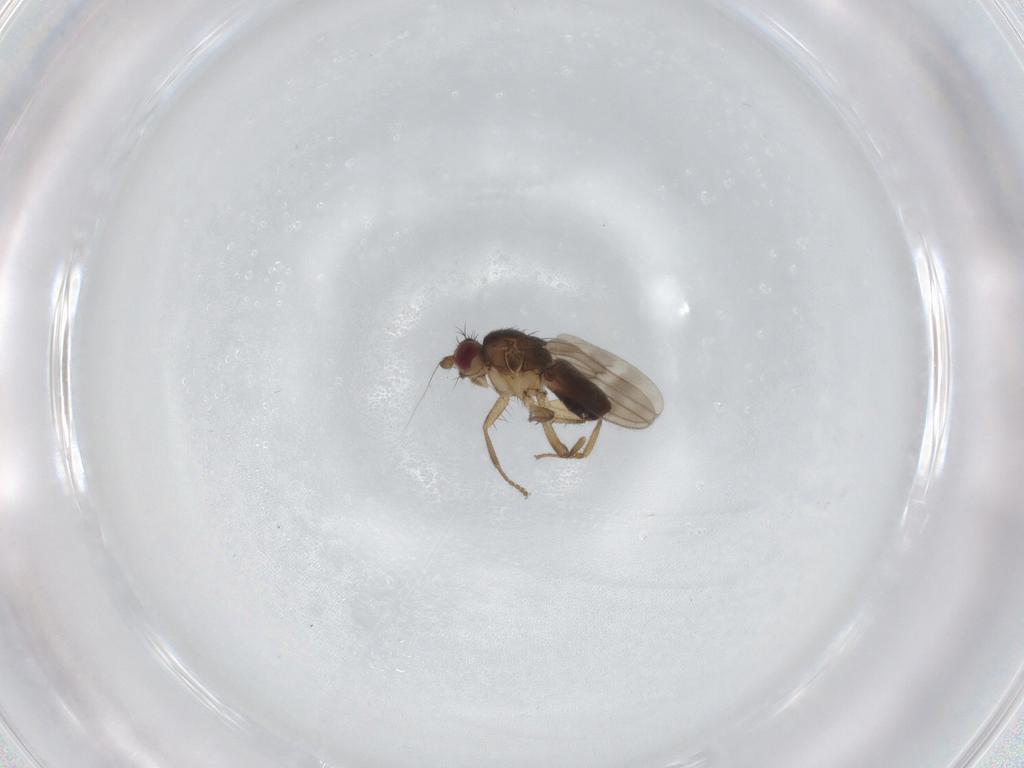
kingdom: Animalia
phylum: Arthropoda
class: Insecta
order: Diptera
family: Sphaeroceridae
